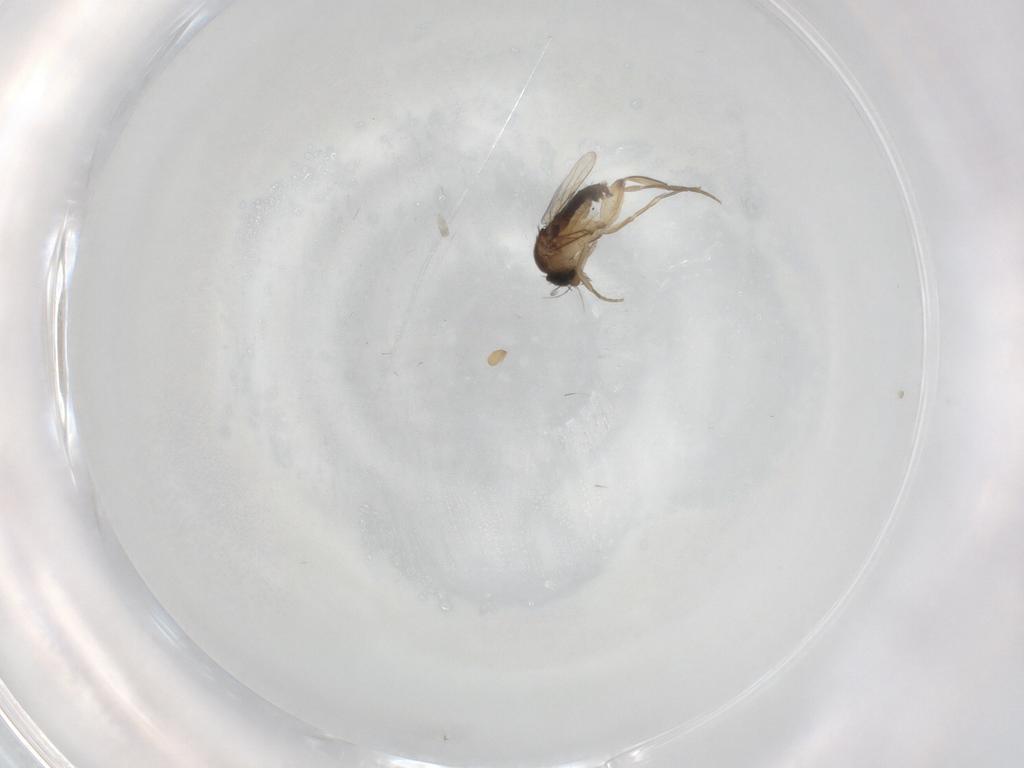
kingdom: Animalia
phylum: Arthropoda
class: Insecta
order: Diptera
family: Phoridae
